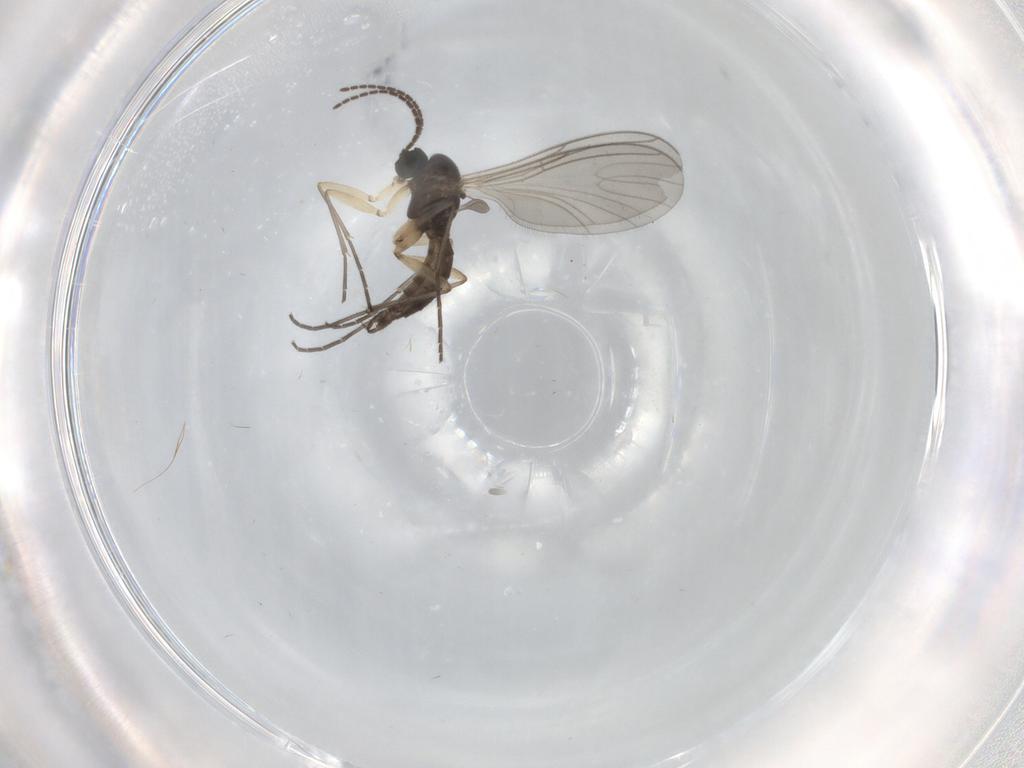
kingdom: Animalia
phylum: Arthropoda
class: Insecta
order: Diptera
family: Sciaridae
